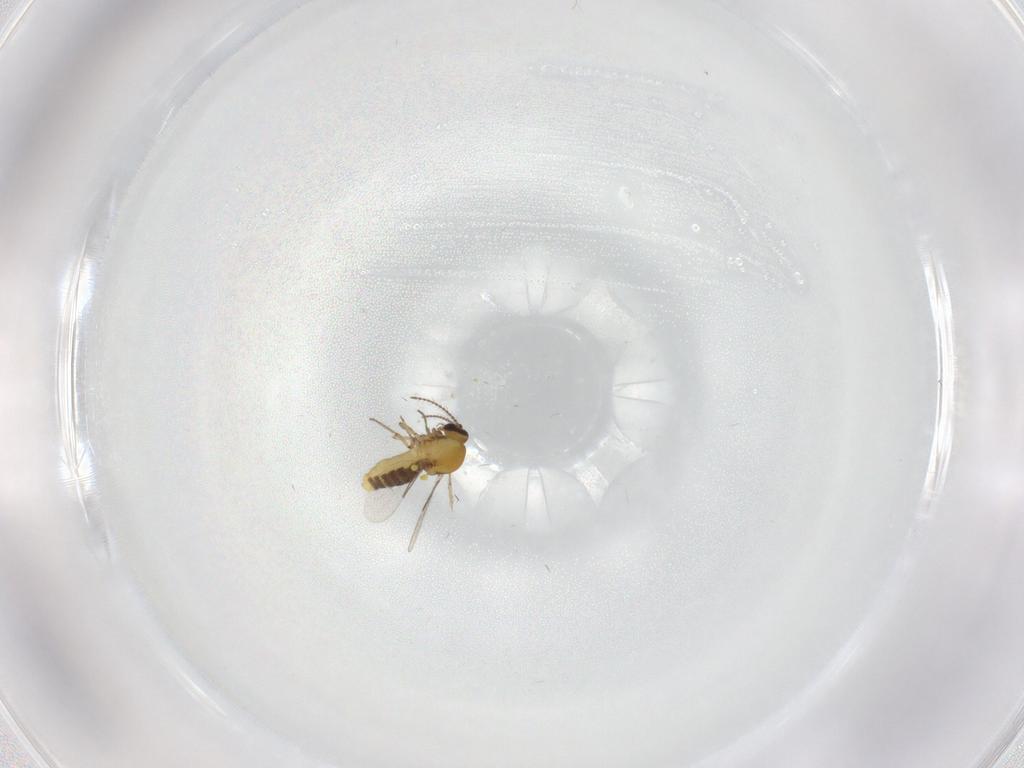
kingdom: Animalia
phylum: Arthropoda
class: Insecta
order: Diptera
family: Ceratopogonidae
